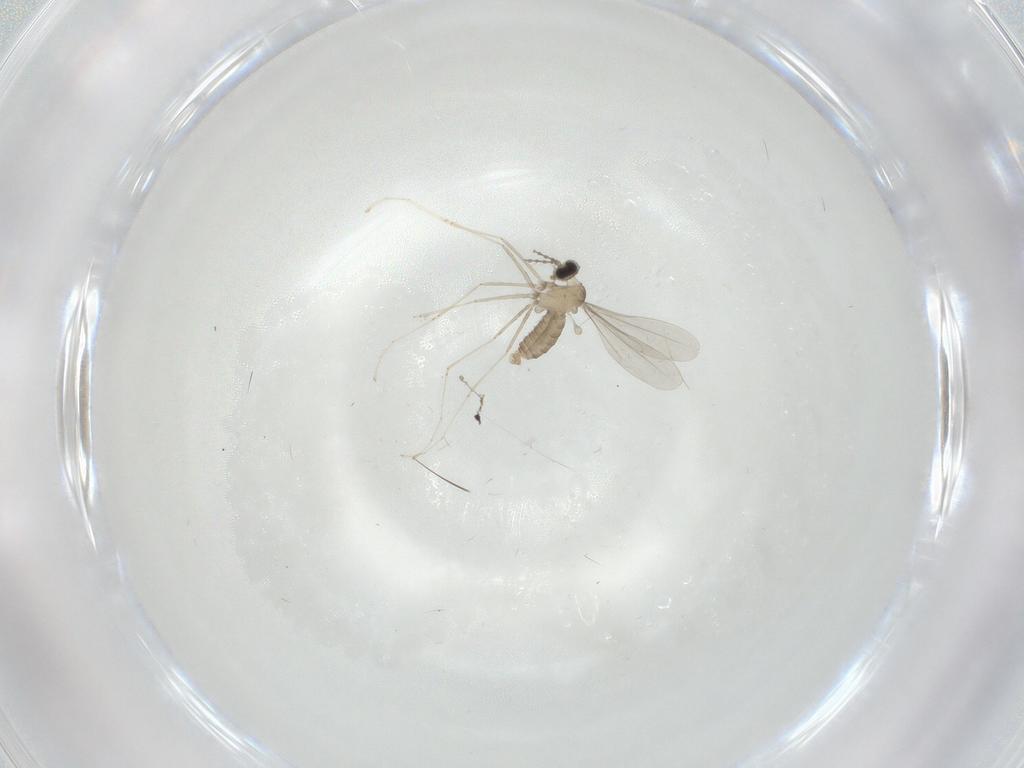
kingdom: Animalia
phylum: Arthropoda
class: Insecta
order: Diptera
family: Cecidomyiidae
